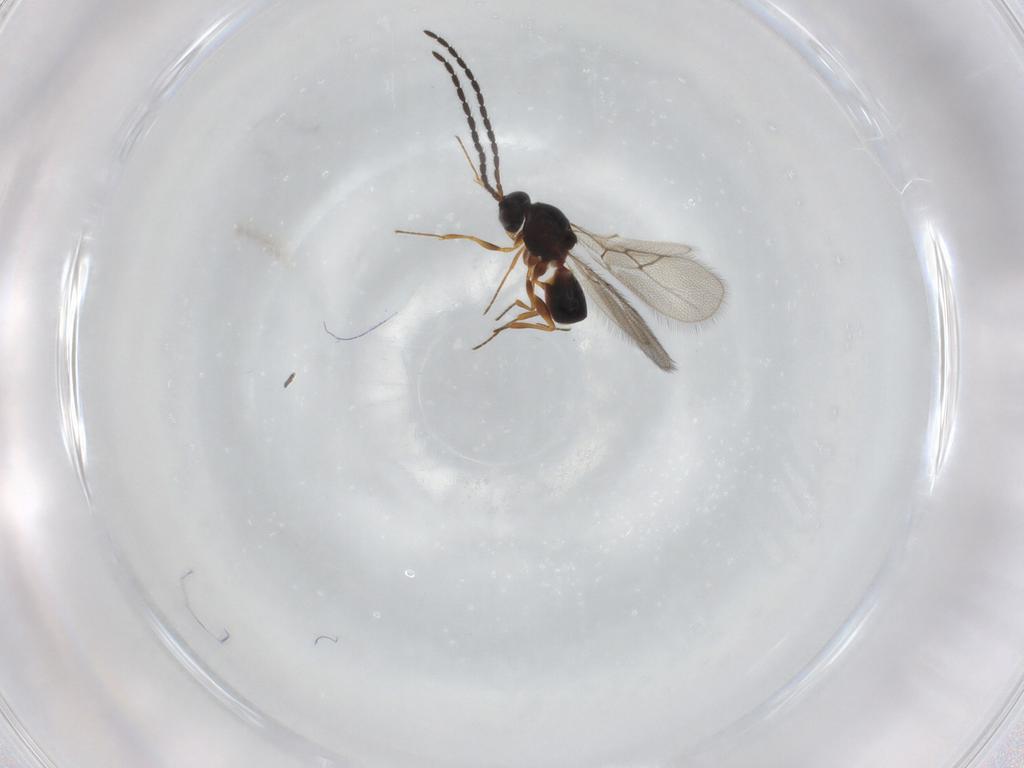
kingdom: Animalia
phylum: Arthropoda
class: Insecta
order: Hymenoptera
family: Figitidae
